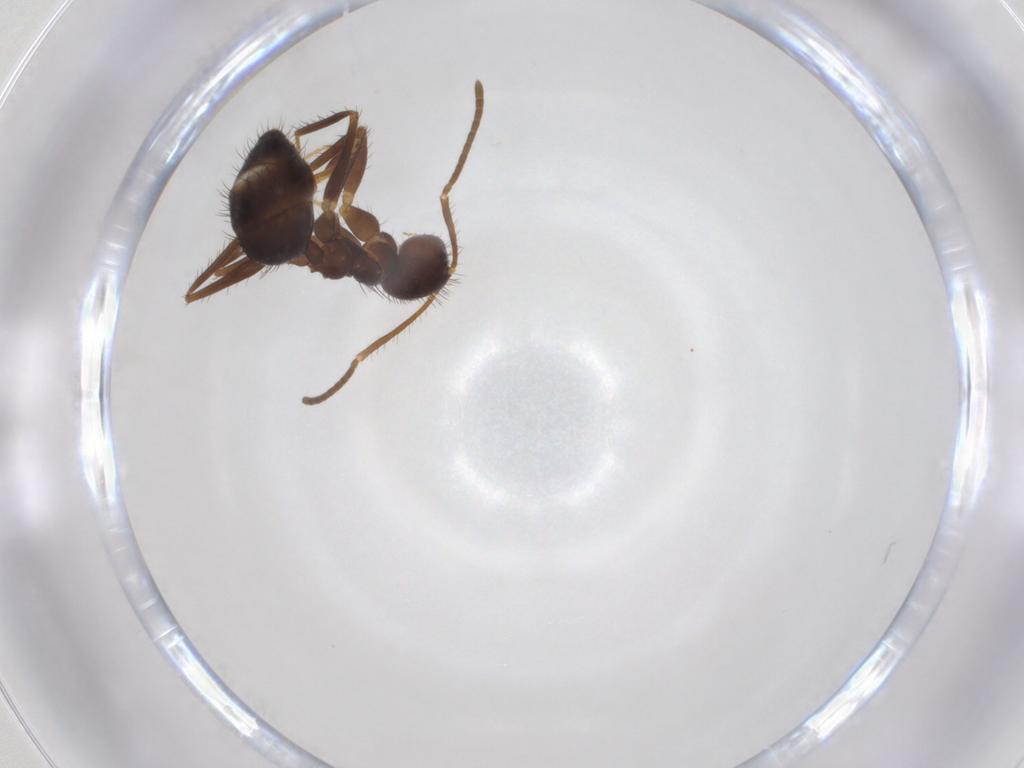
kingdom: Animalia
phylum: Arthropoda
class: Insecta
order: Hymenoptera
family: Formicidae
